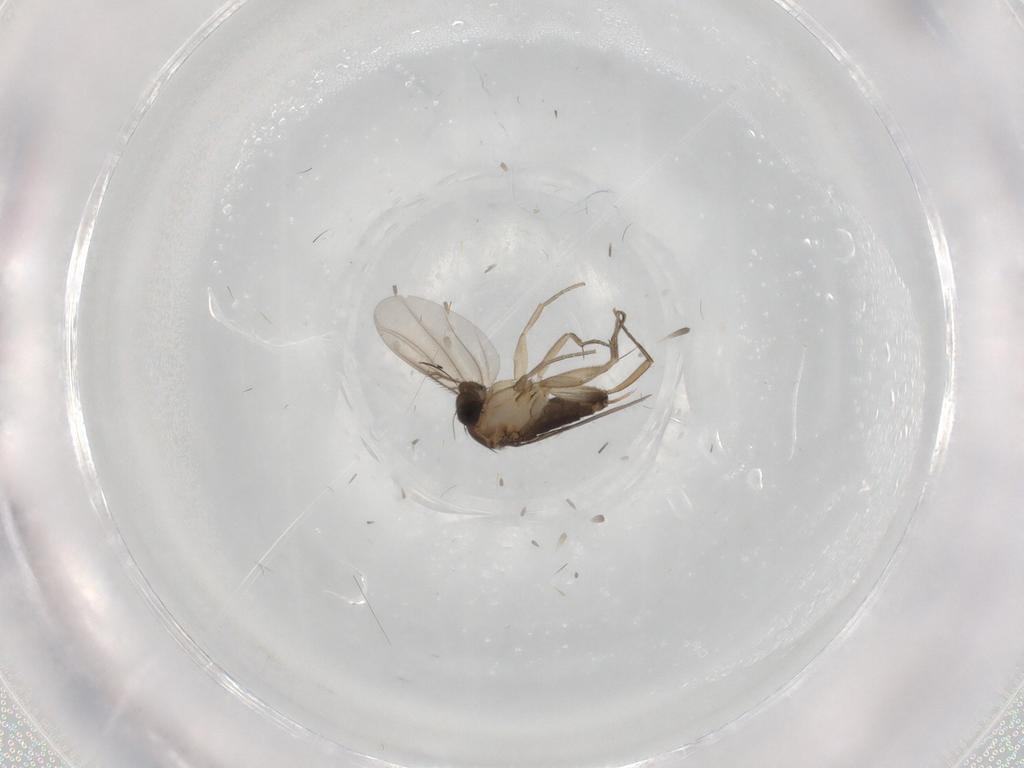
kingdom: Animalia
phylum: Arthropoda
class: Insecta
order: Diptera
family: Phoridae
